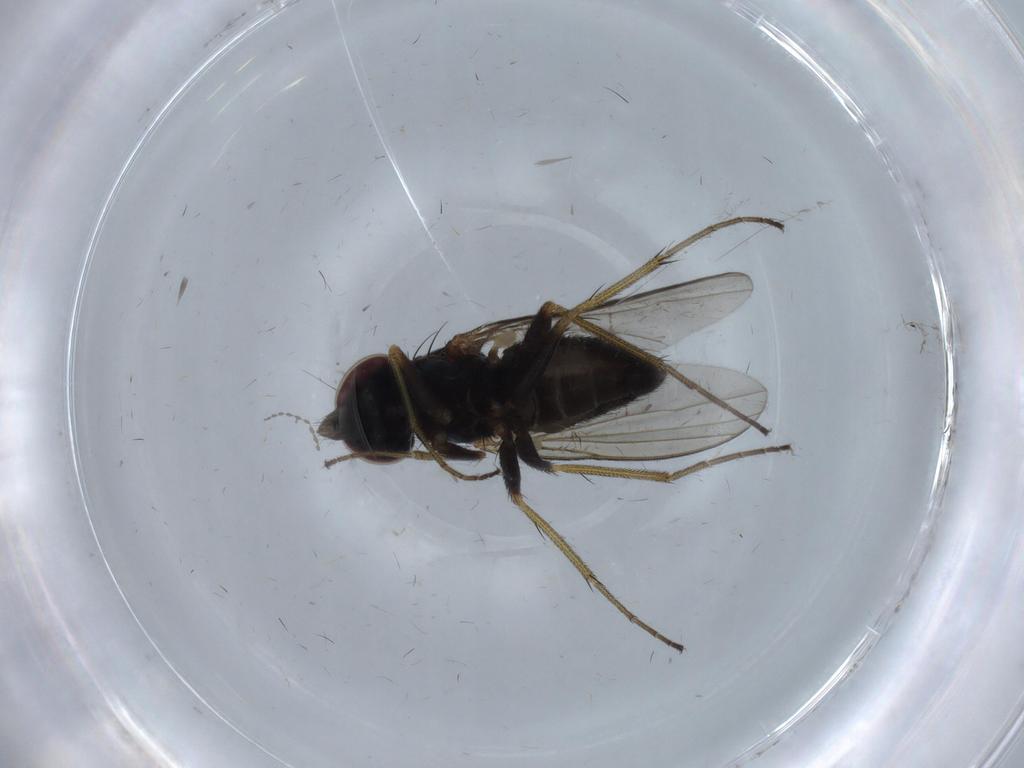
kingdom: Animalia
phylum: Arthropoda
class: Insecta
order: Diptera
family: Dolichopodidae
